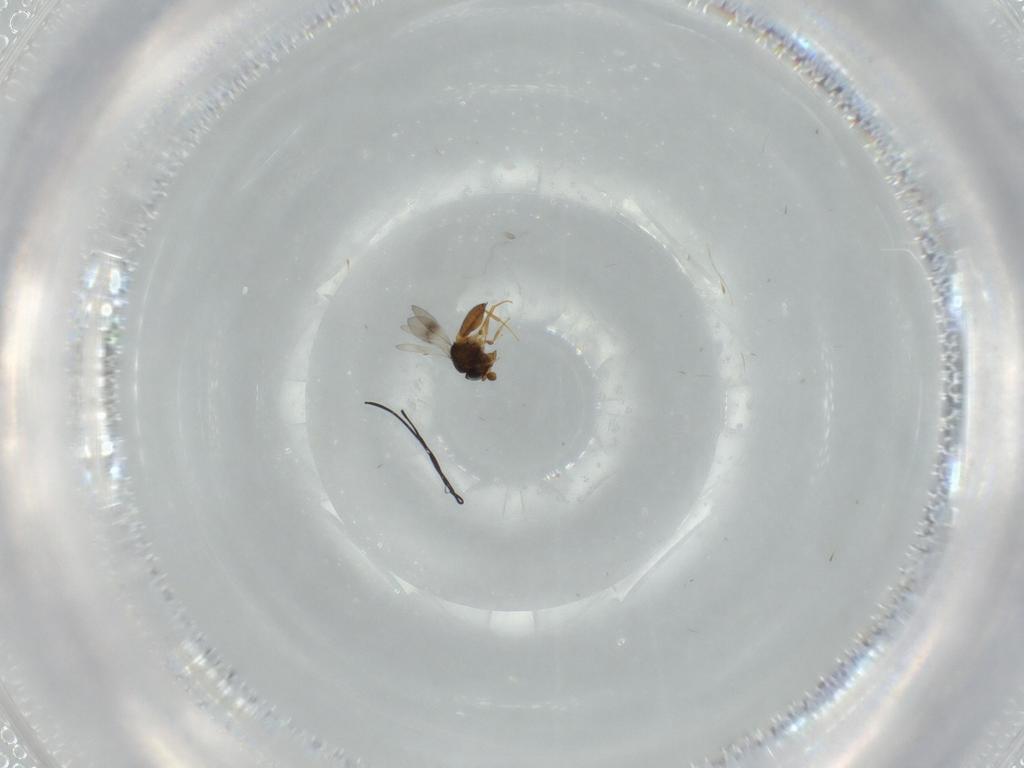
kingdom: Animalia
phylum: Arthropoda
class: Insecta
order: Hymenoptera
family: Scelionidae
